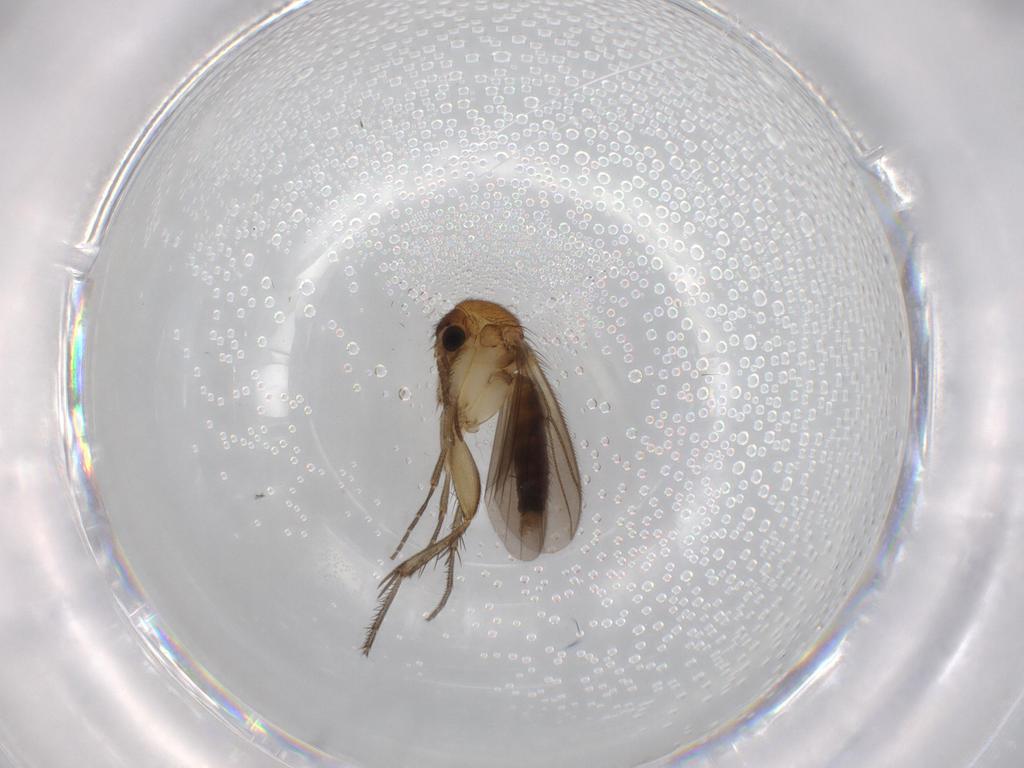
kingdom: Animalia
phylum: Arthropoda
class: Insecta
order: Diptera
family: Mycetophilidae
